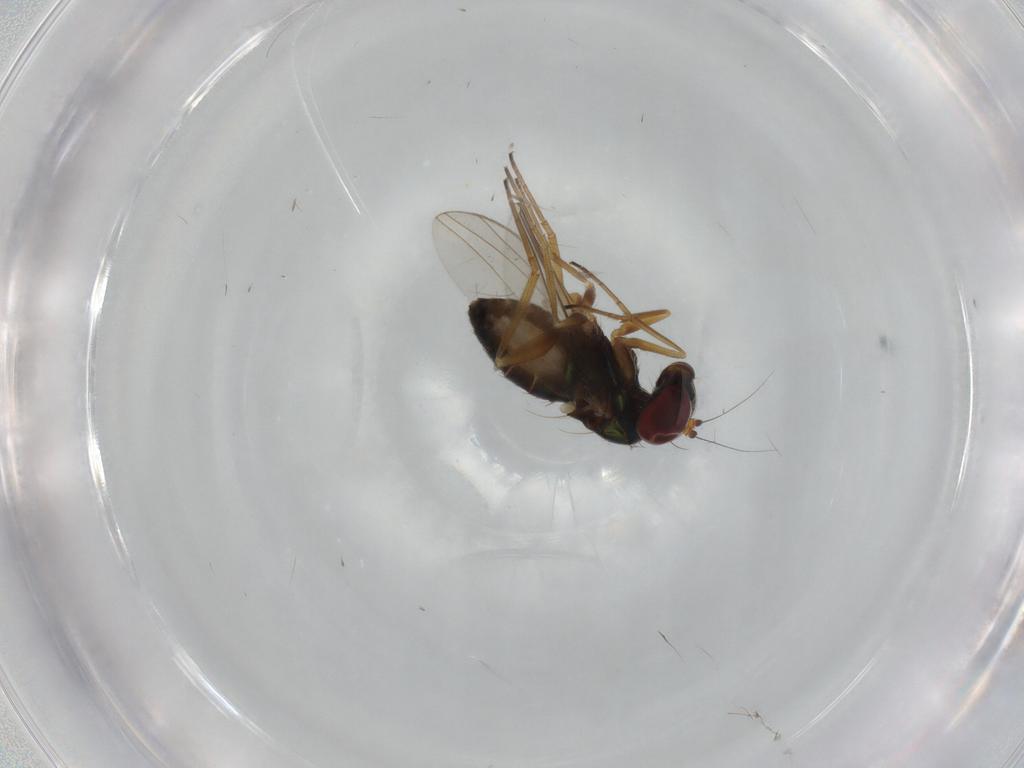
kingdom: Animalia
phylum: Arthropoda
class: Insecta
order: Diptera
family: Dolichopodidae
